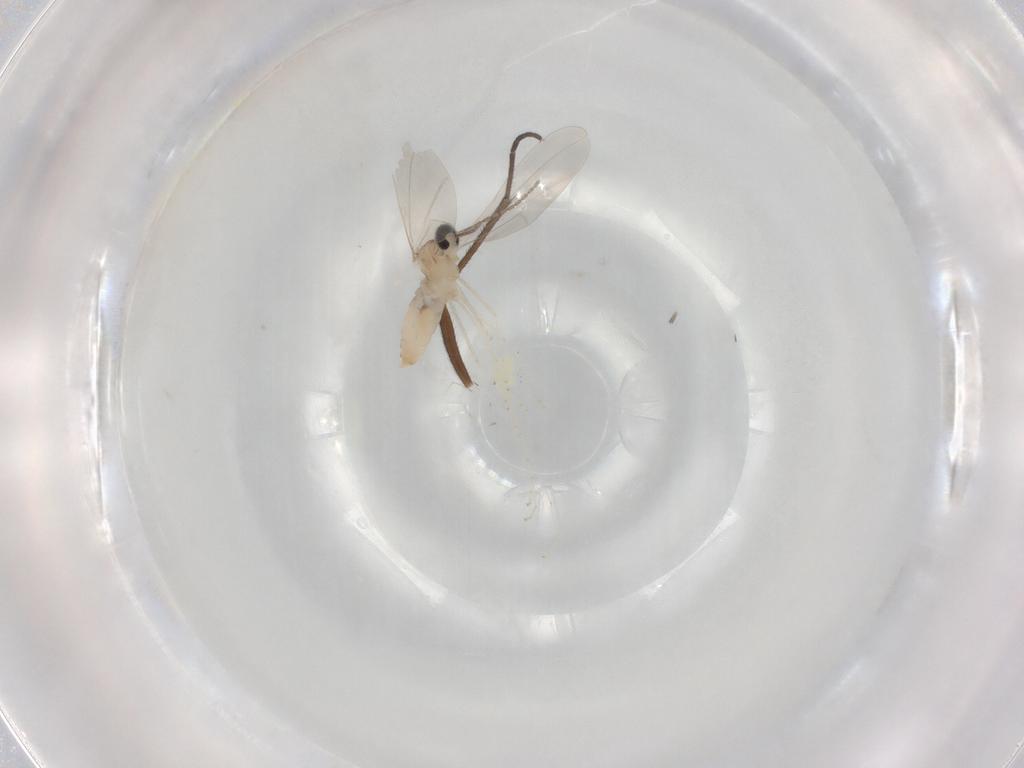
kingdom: Animalia
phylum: Arthropoda
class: Insecta
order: Diptera
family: Cecidomyiidae
